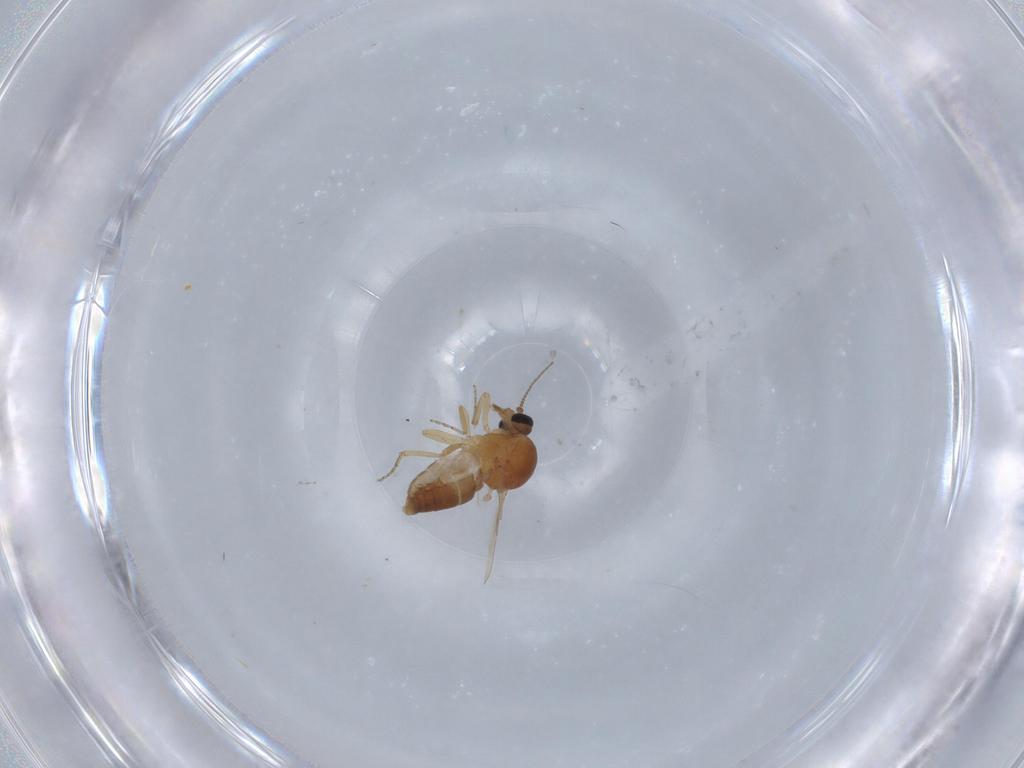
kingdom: Animalia
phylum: Arthropoda
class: Insecta
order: Diptera
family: Ceratopogonidae
